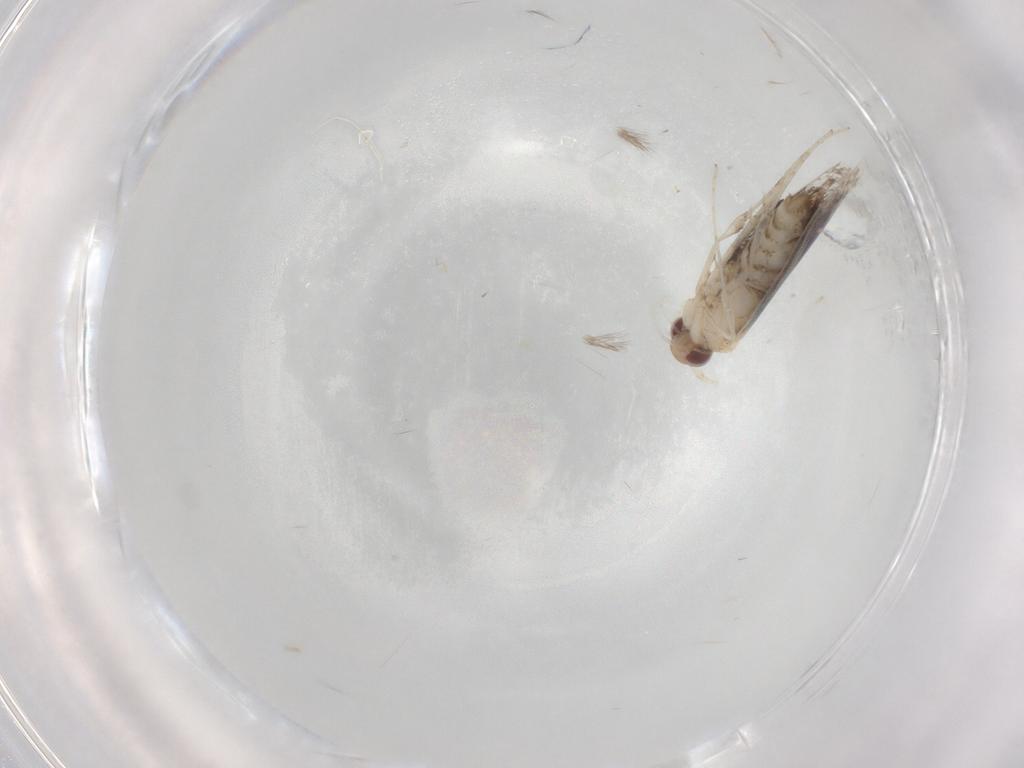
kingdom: Animalia
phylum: Arthropoda
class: Insecta
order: Lepidoptera
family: Gracillariidae
